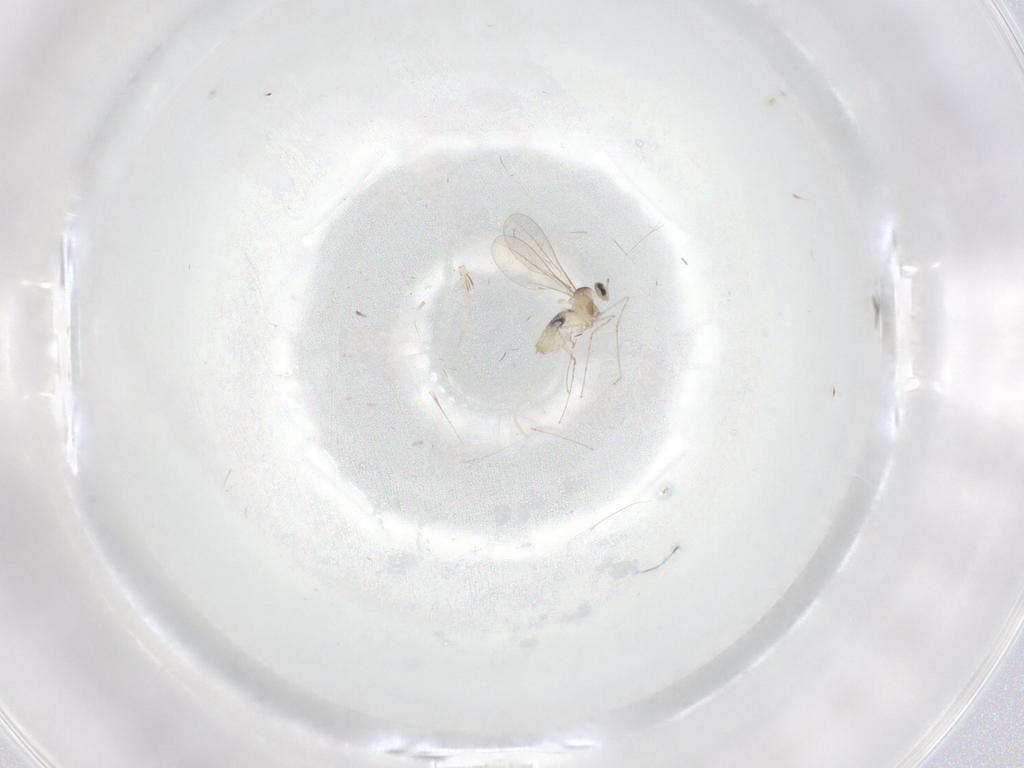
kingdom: Animalia
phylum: Arthropoda
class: Insecta
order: Diptera
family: Cecidomyiidae
